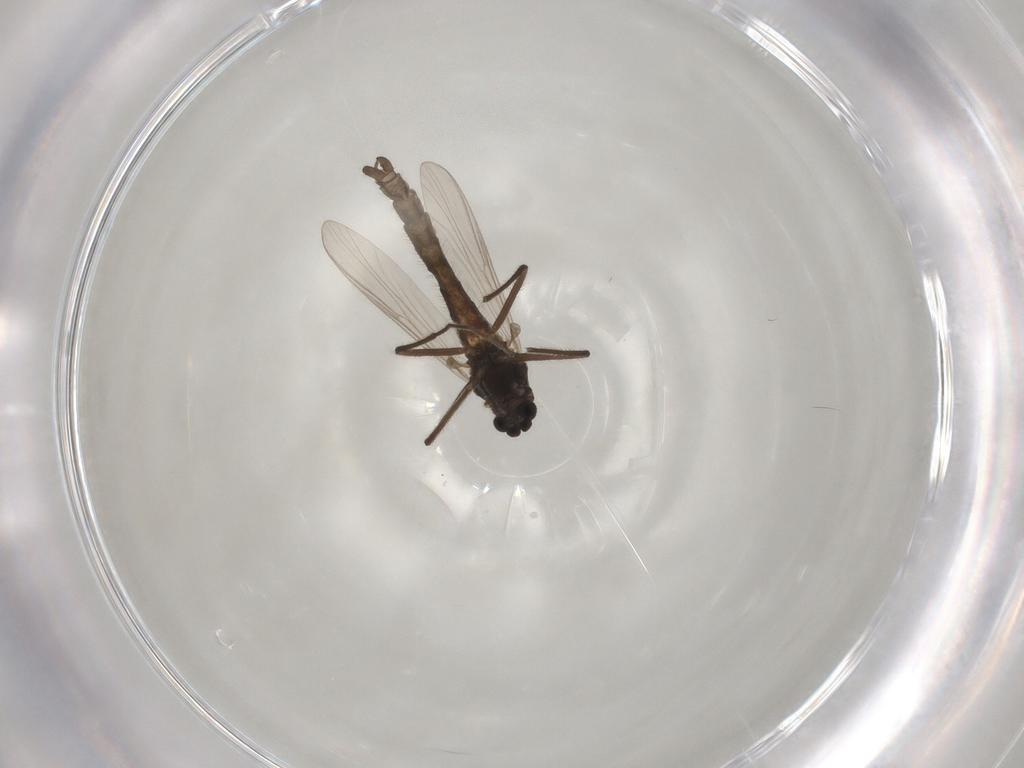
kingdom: Animalia
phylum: Arthropoda
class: Insecta
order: Diptera
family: Chironomidae
